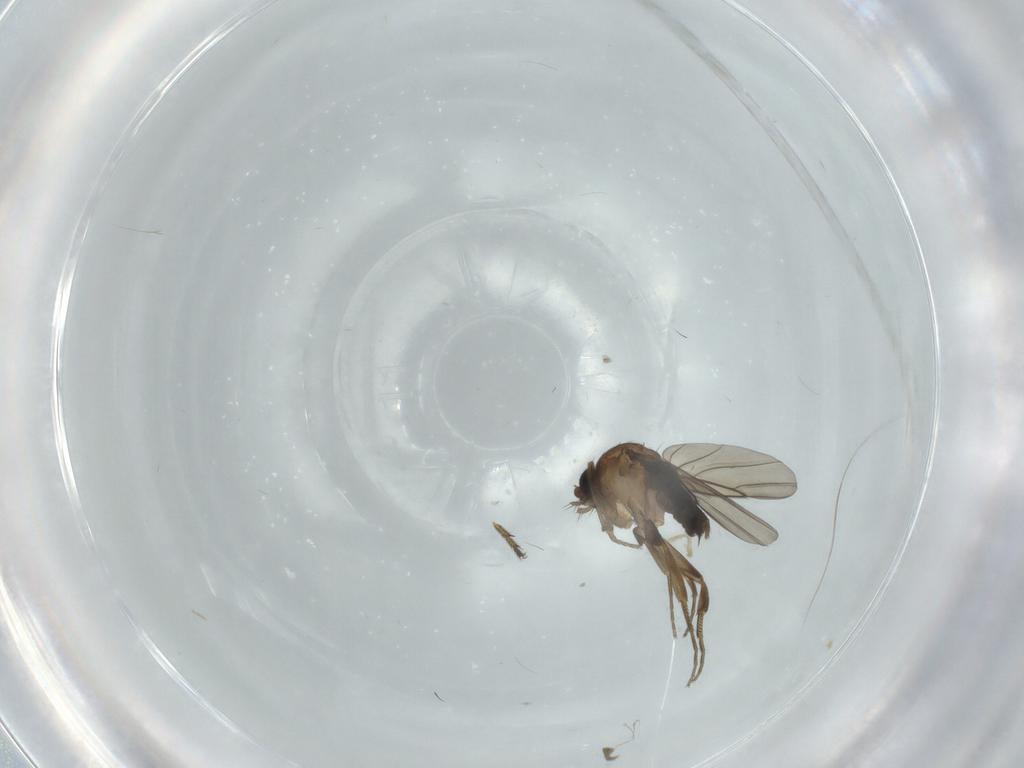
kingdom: Animalia
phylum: Arthropoda
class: Insecta
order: Diptera
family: Phoridae
